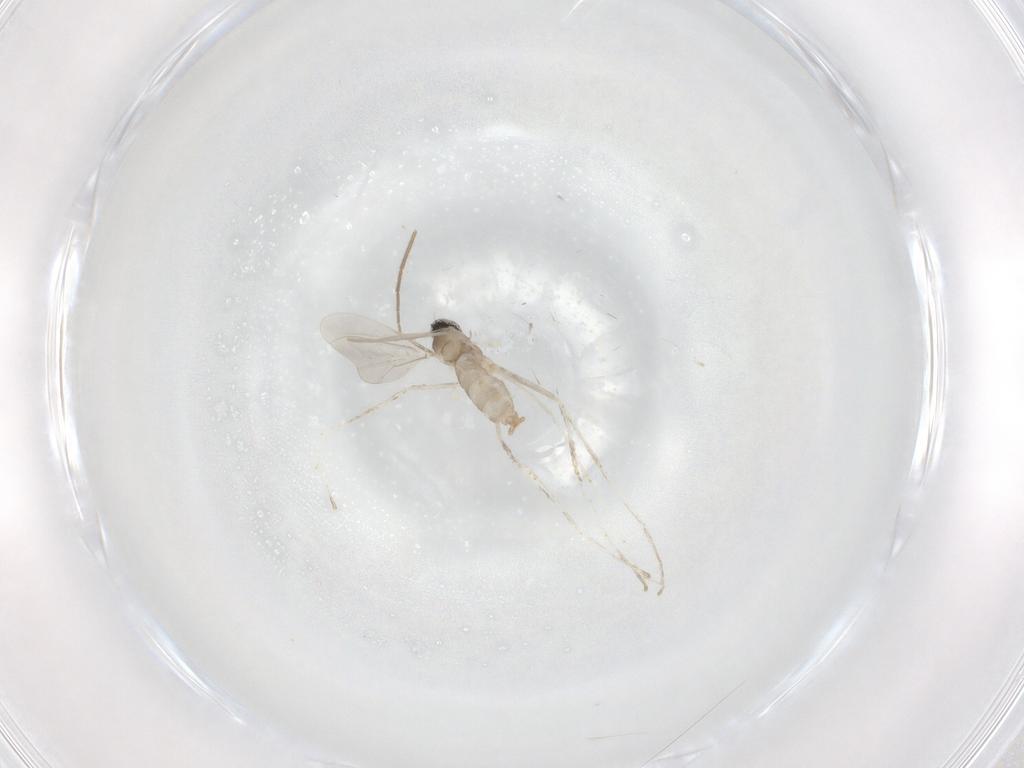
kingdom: Animalia
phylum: Arthropoda
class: Insecta
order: Diptera
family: Cecidomyiidae
